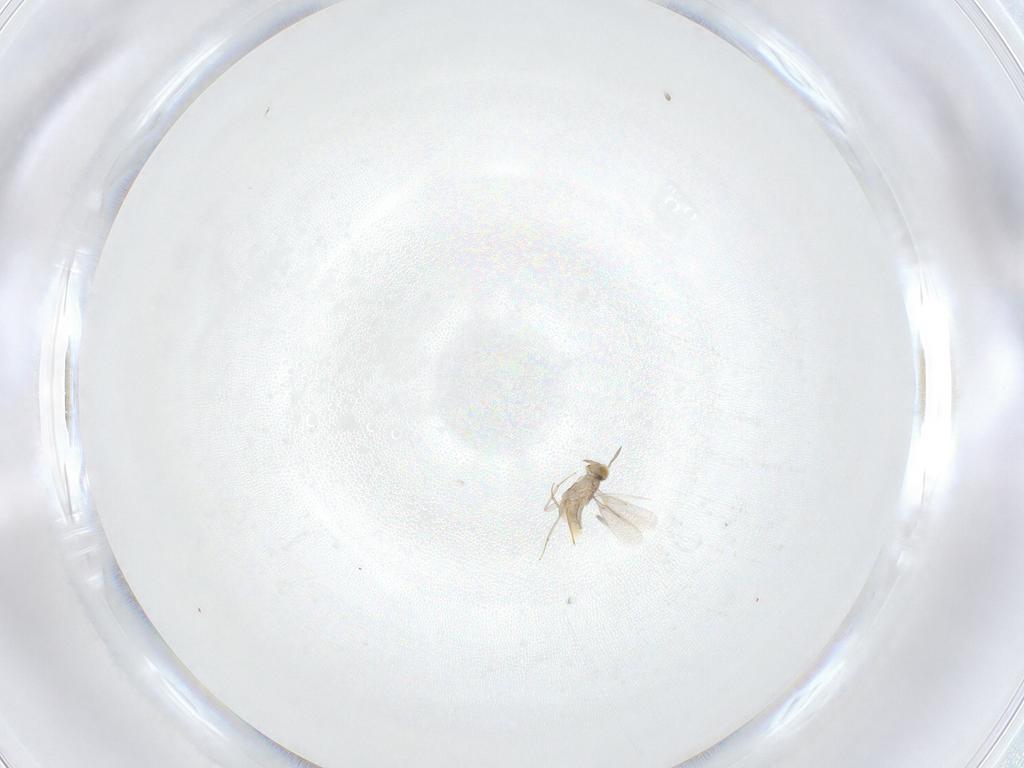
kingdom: Animalia
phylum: Arthropoda
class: Insecta
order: Hymenoptera
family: Aphelinidae
